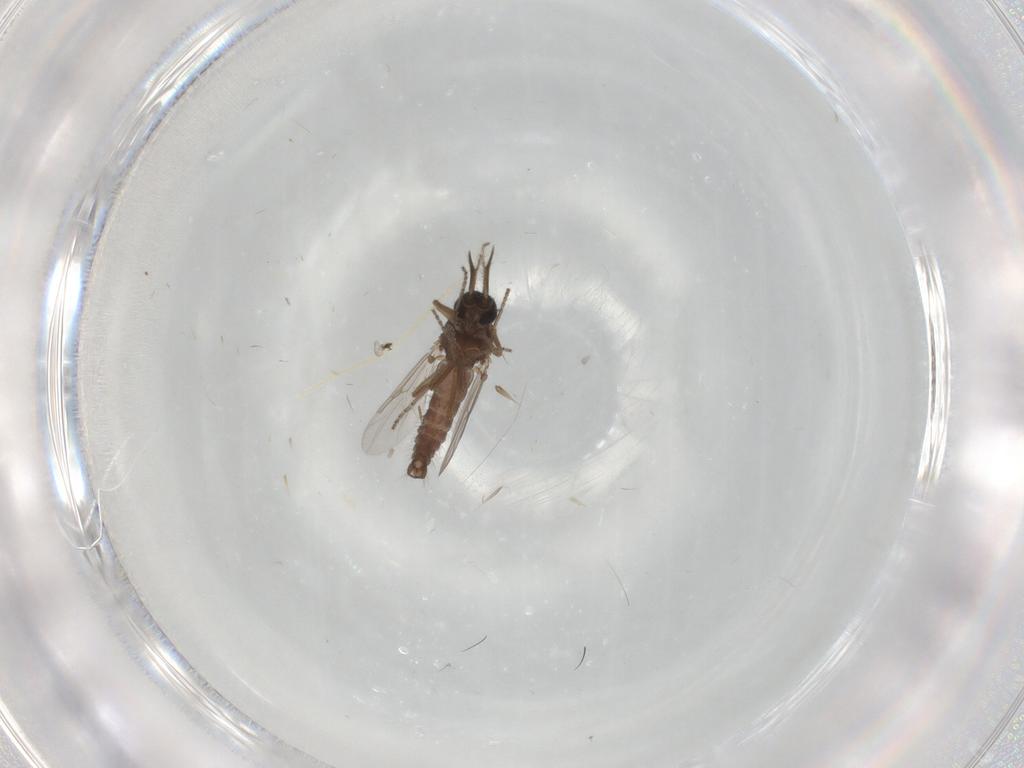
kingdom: Animalia
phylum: Arthropoda
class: Insecta
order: Diptera
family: Ceratopogonidae
